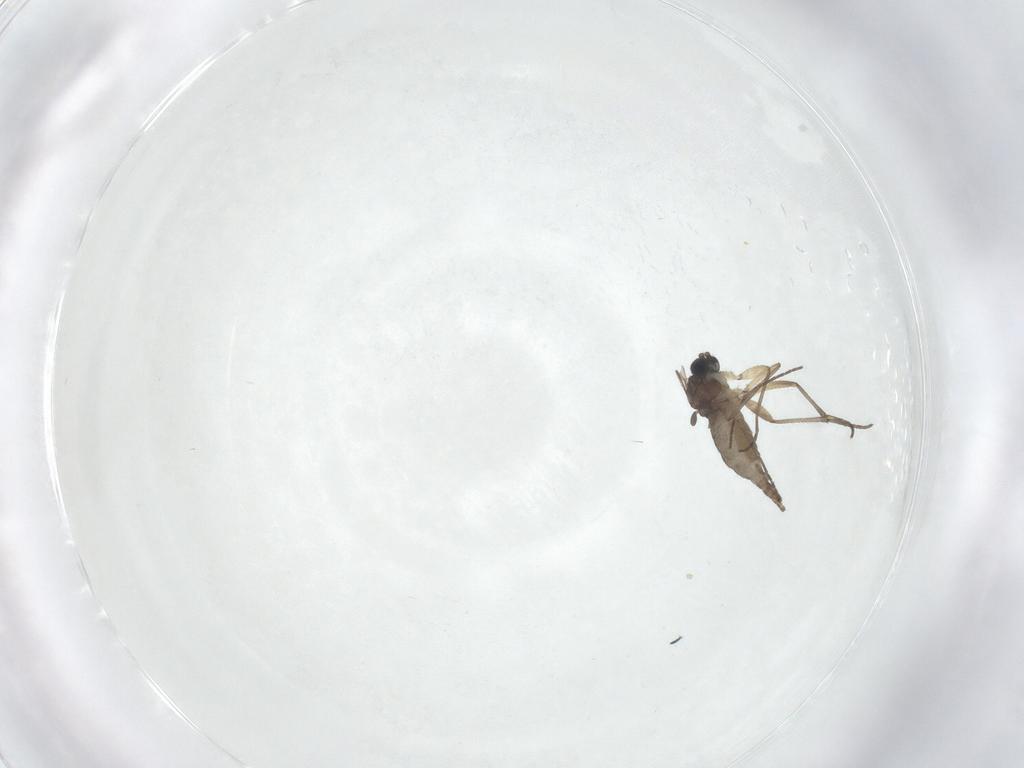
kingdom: Animalia
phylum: Arthropoda
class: Insecta
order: Diptera
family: Sciaridae
